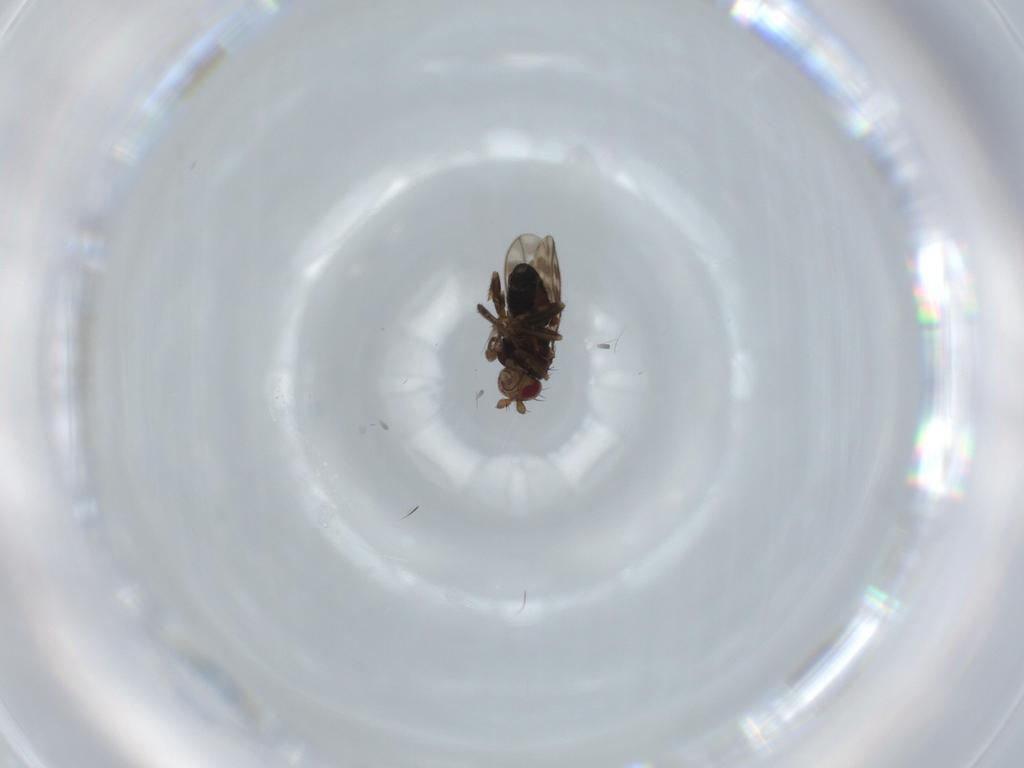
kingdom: Animalia
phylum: Arthropoda
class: Insecta
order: Diptera
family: Sphaeroceridae
